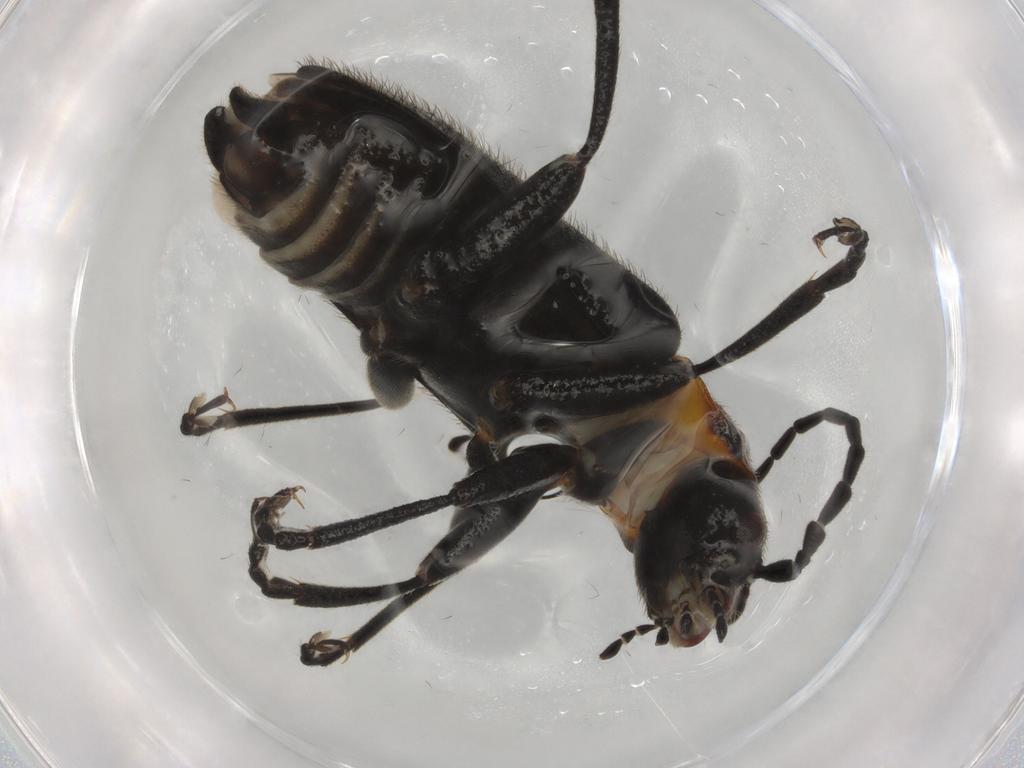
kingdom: Animalia
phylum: Arthropoda
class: Insecta
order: Coleoptera
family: Cantharidae
